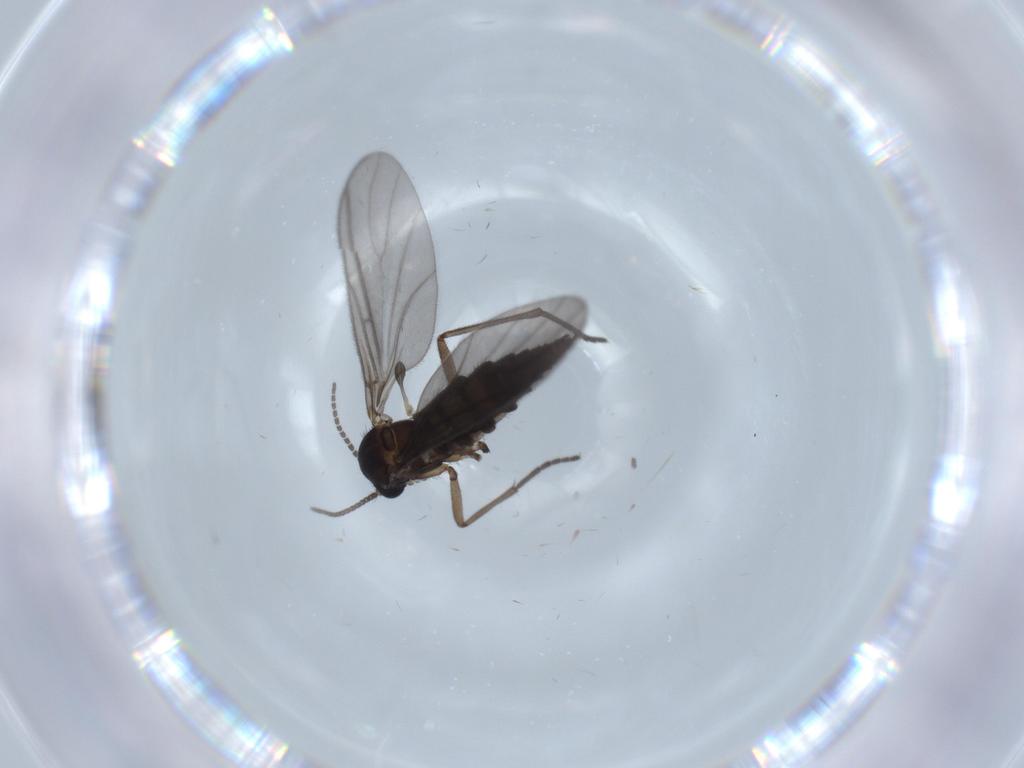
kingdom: Animalia
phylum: Arthropoda
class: Insecta
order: Diptera
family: Sciaridae
